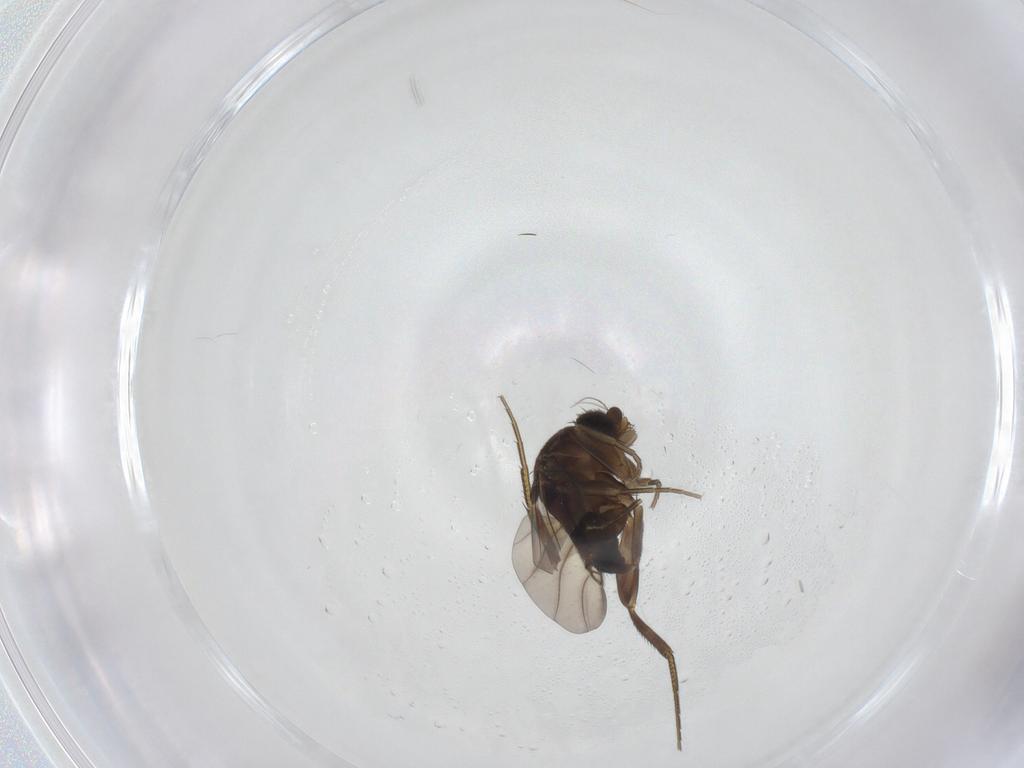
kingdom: Animalia
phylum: Arthropoda
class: Insecta
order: Diptera
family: Phoridae
